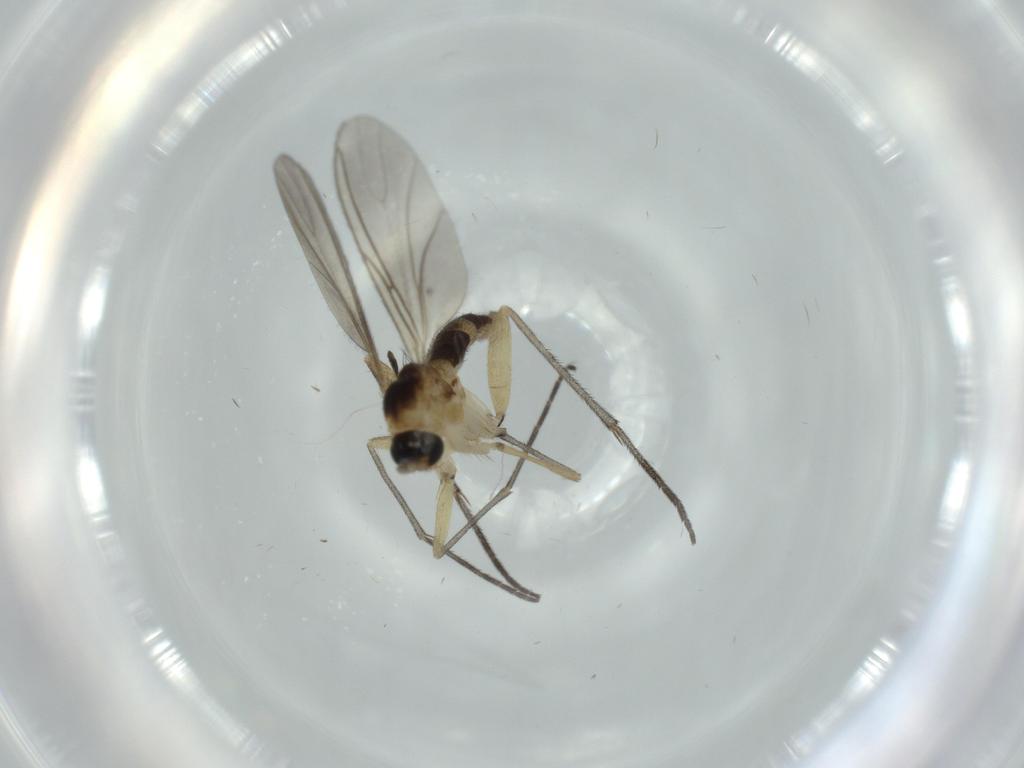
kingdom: Animalia
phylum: Arthropoda
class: Insecta
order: Diptera
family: Sciaridae
